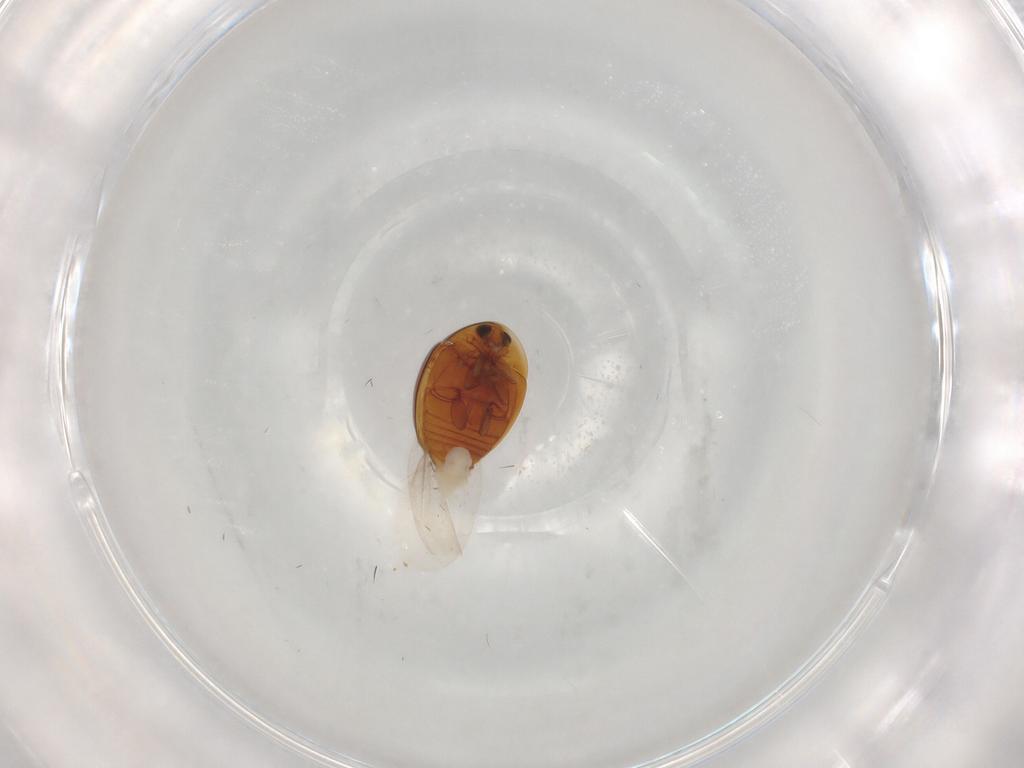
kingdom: Animalia
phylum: Arthropoda
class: Insecta
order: Coleoptera
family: Corylophidae
